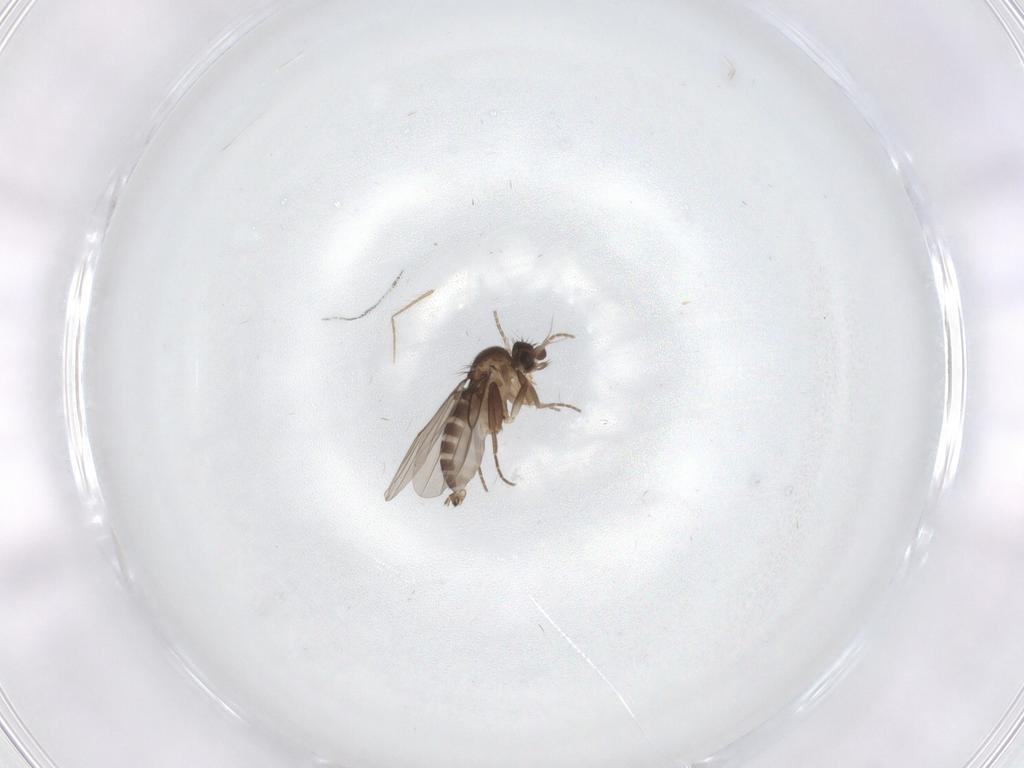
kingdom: Animalia
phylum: Arthropoda
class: Insecta
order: Diptera
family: Phoridae
